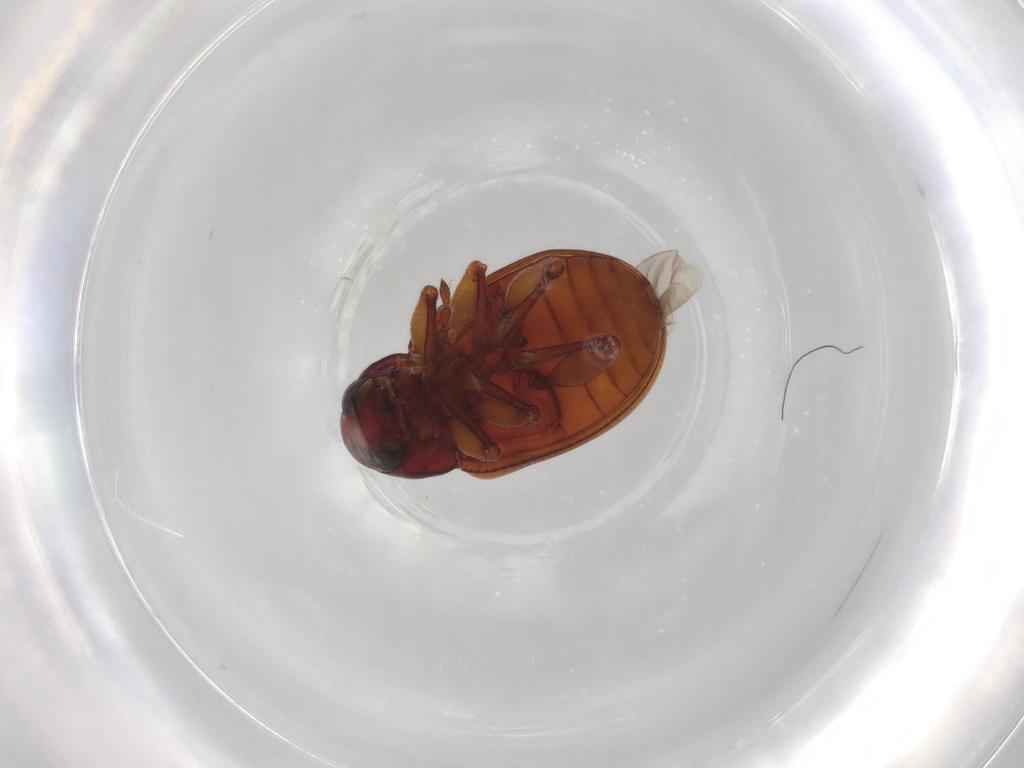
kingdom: Animalia
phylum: Arthropoda
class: Insecta
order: Coleoptera
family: Chrysomelidae
